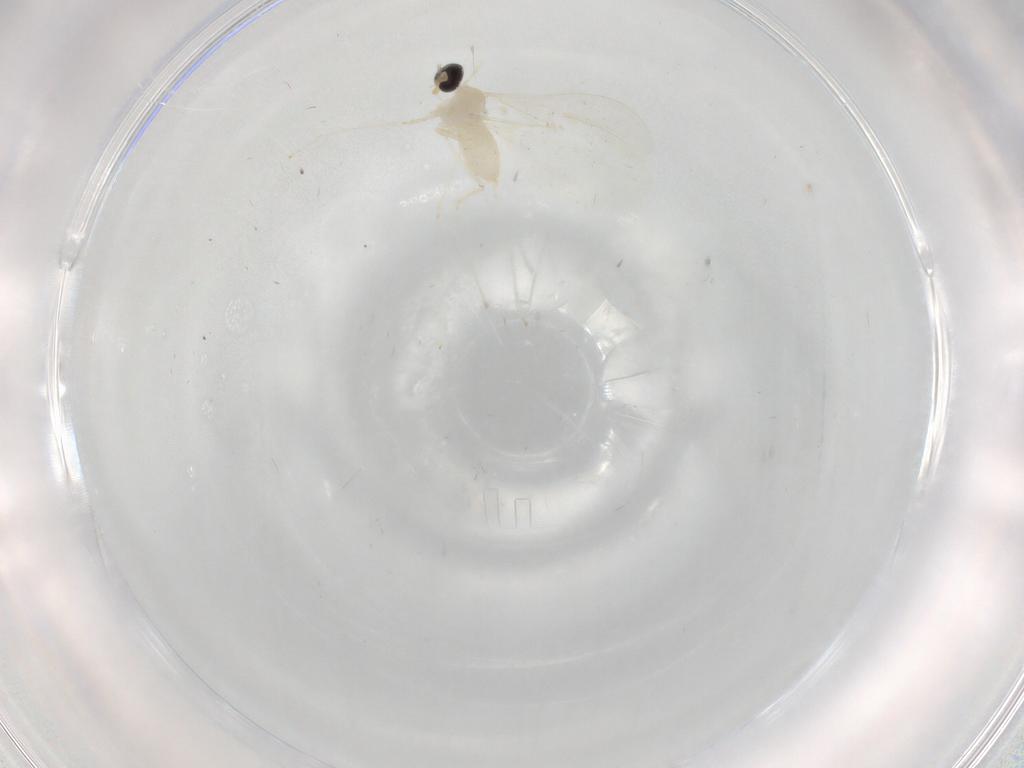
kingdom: Animalia
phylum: Arthropoda
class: Insecta
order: Diptera
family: Cecidomyiidae
